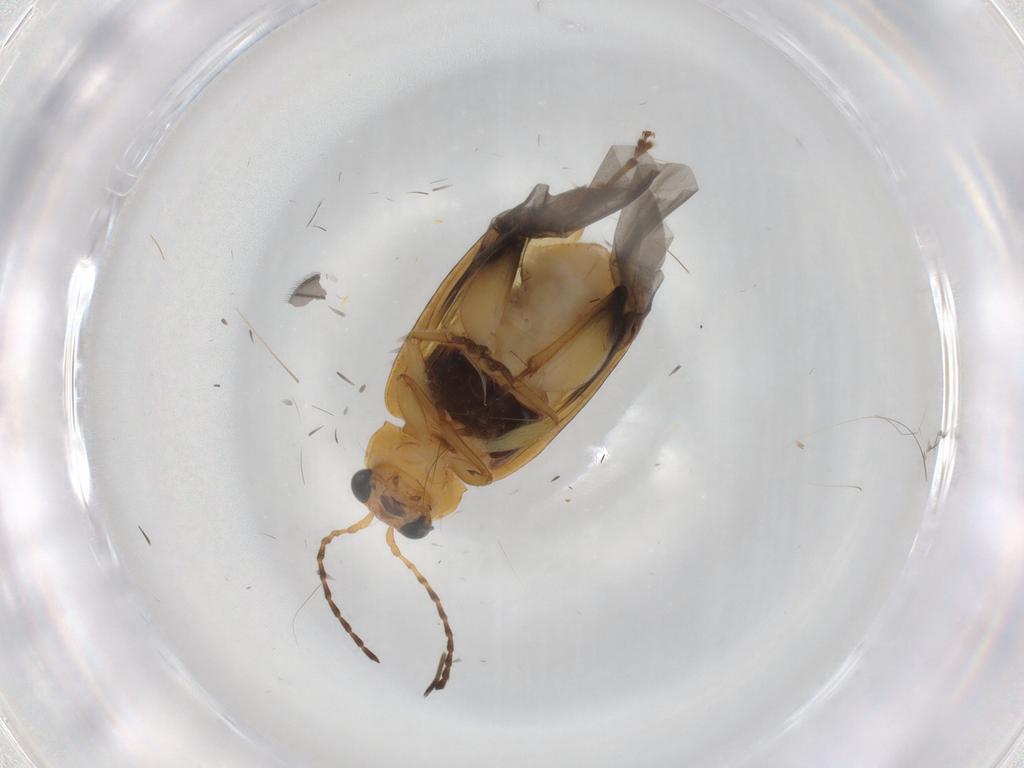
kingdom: Animalia
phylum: Arthropoda
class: Insecta
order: Coleoptera
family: Chrysomelidae
